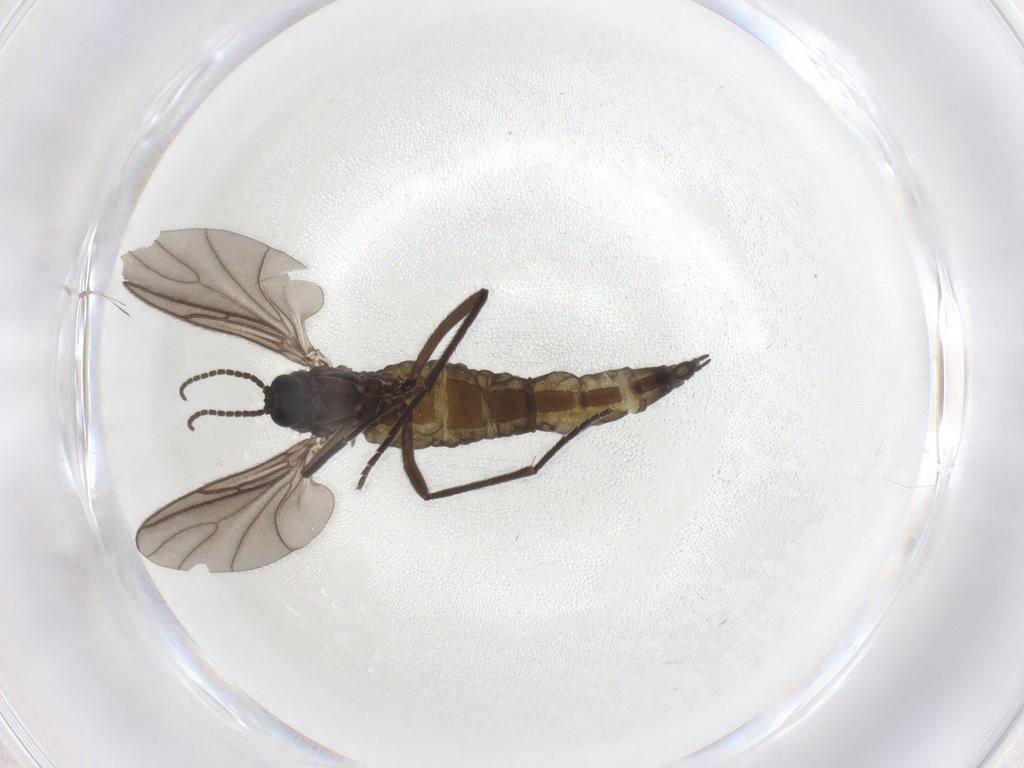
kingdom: Animalia
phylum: Arthropoda
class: Insecta
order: Diptera
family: Sciaridae
